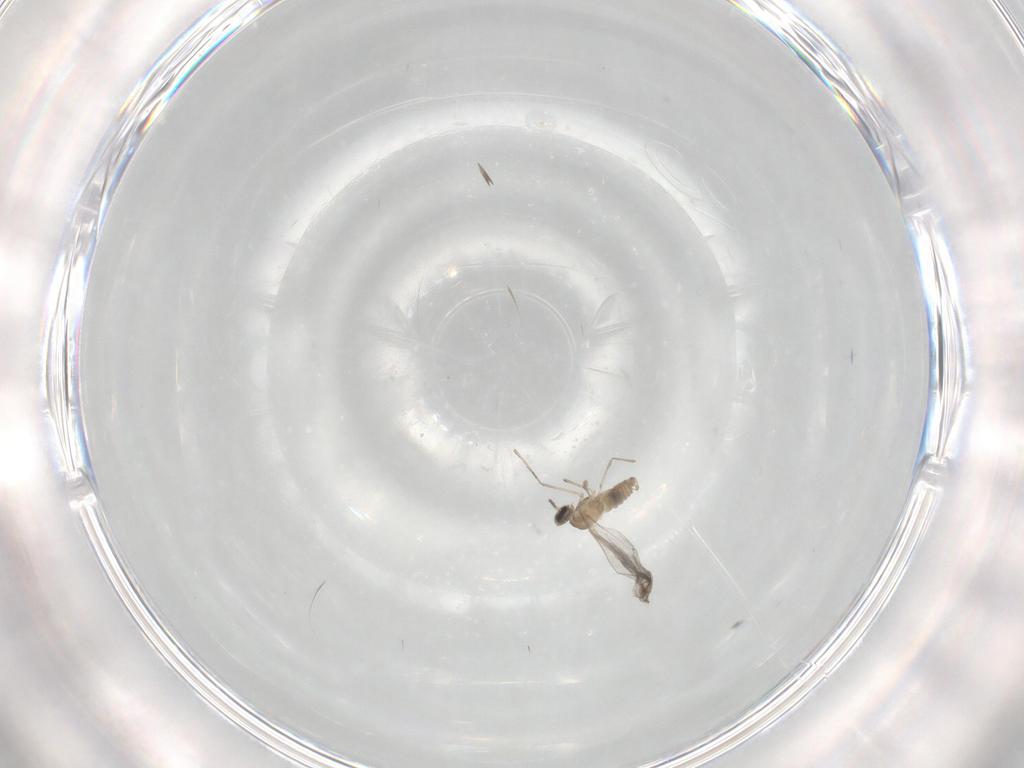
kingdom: Animalia
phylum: Arthropoda
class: Insecta
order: Diptera
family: Cecidomyiidae
